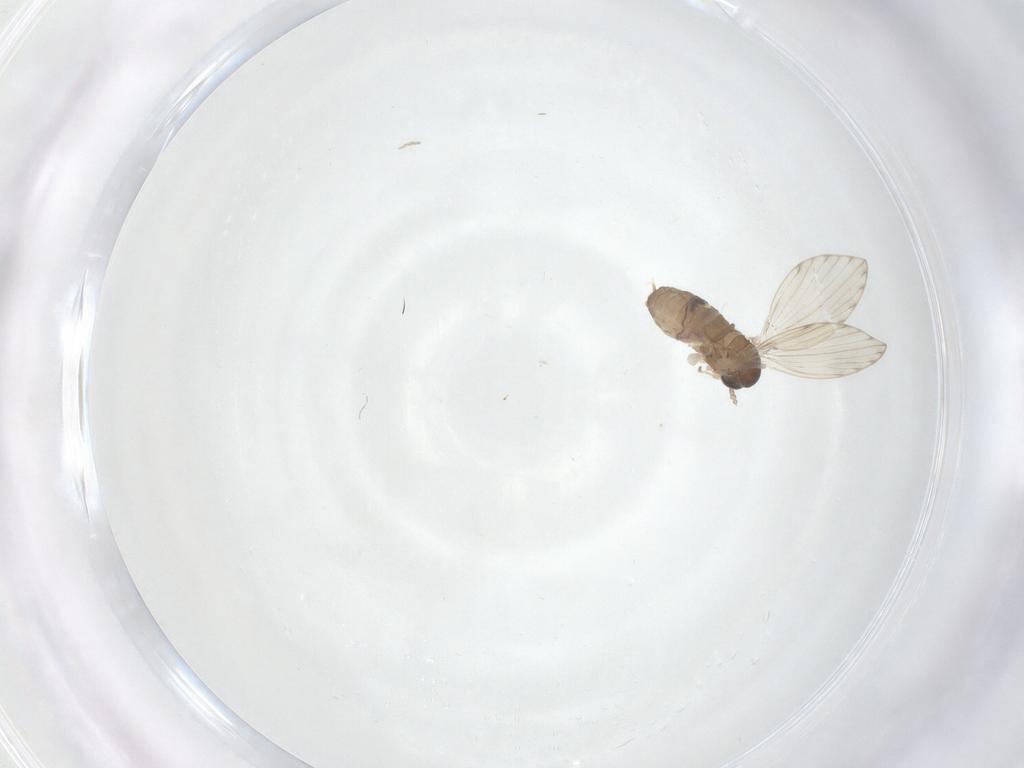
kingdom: Animalia
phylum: Arthropoda
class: Insecta
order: Diptera
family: Psychodidae
